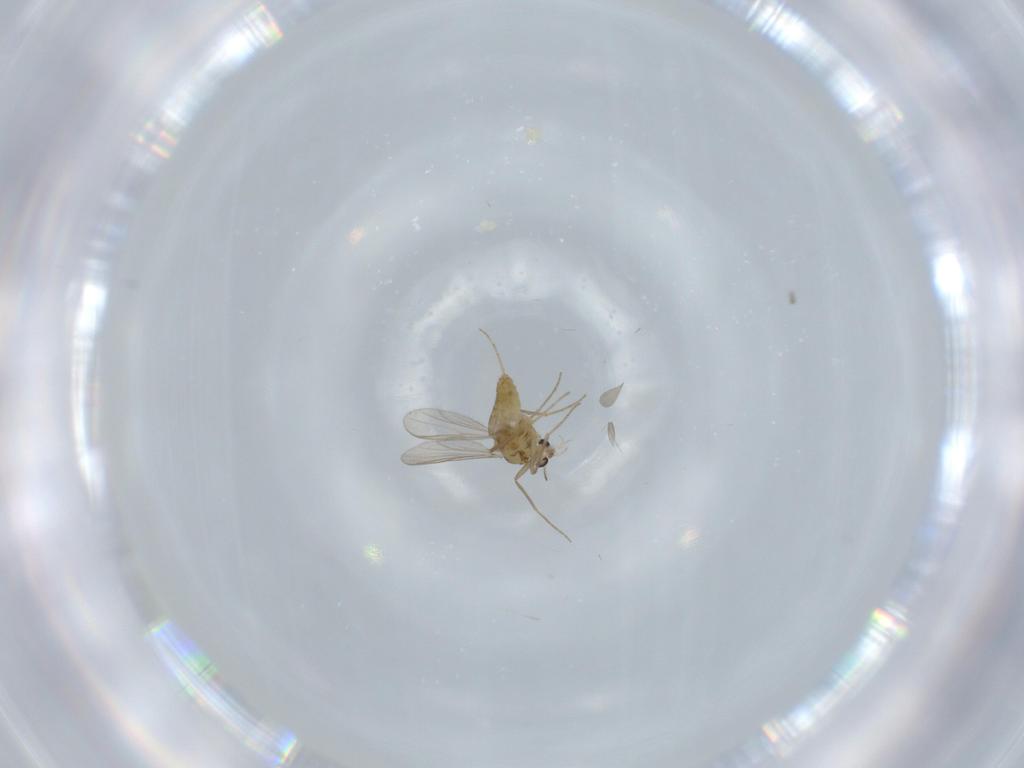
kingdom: Animalia
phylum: Arthropoda
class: Insecta
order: Diptera
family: Chironomidae
